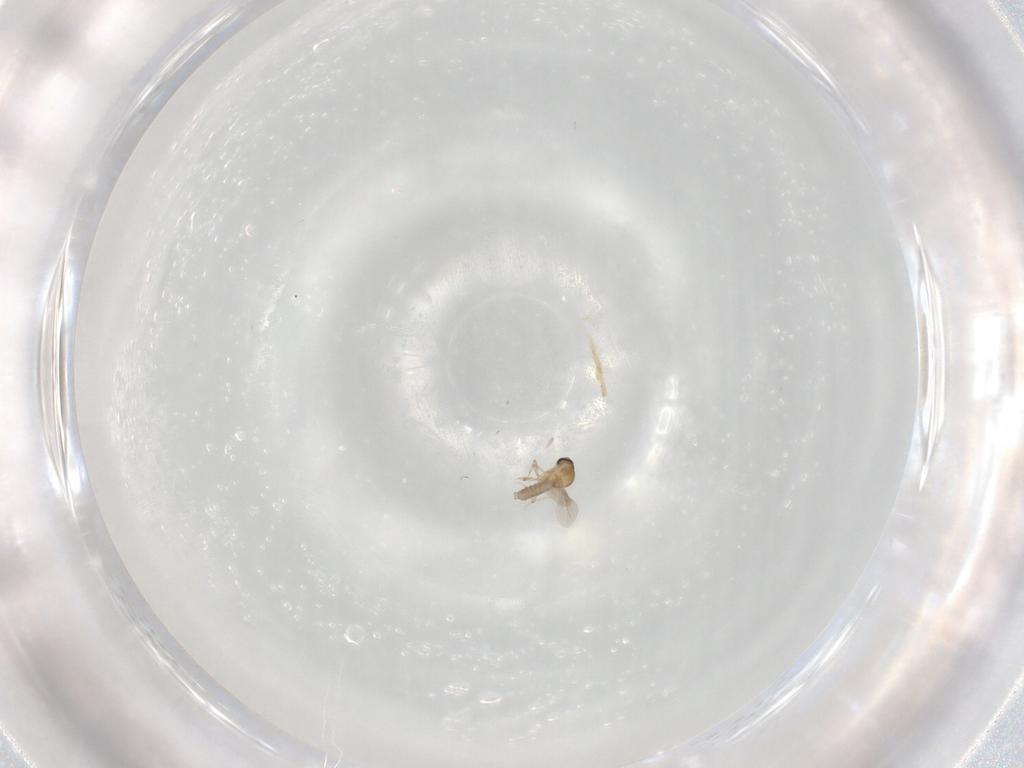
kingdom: Animalia
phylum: Arthropoda
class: Insecta
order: Diptera
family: Ceratopogonidae
